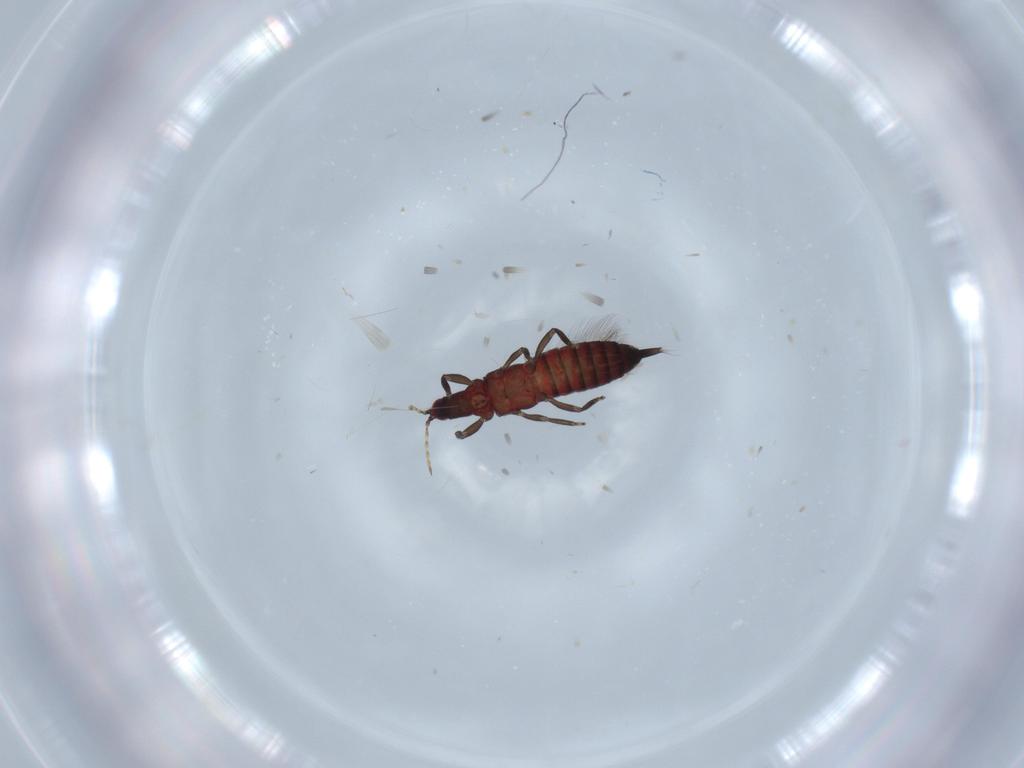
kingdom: Animalia
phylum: Arthropoda
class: Insecta
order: Thysanoptera
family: Phlaeothripidae
